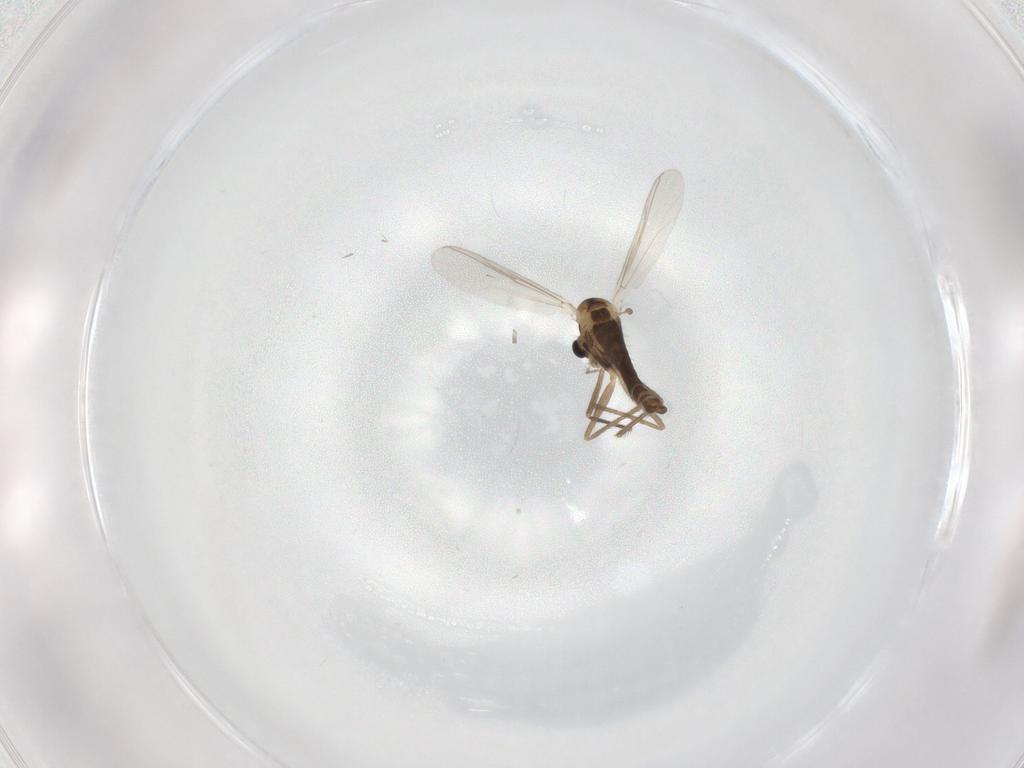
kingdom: Animalia
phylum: Arthropoda
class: Insecta
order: Diptera
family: Chironomidae
